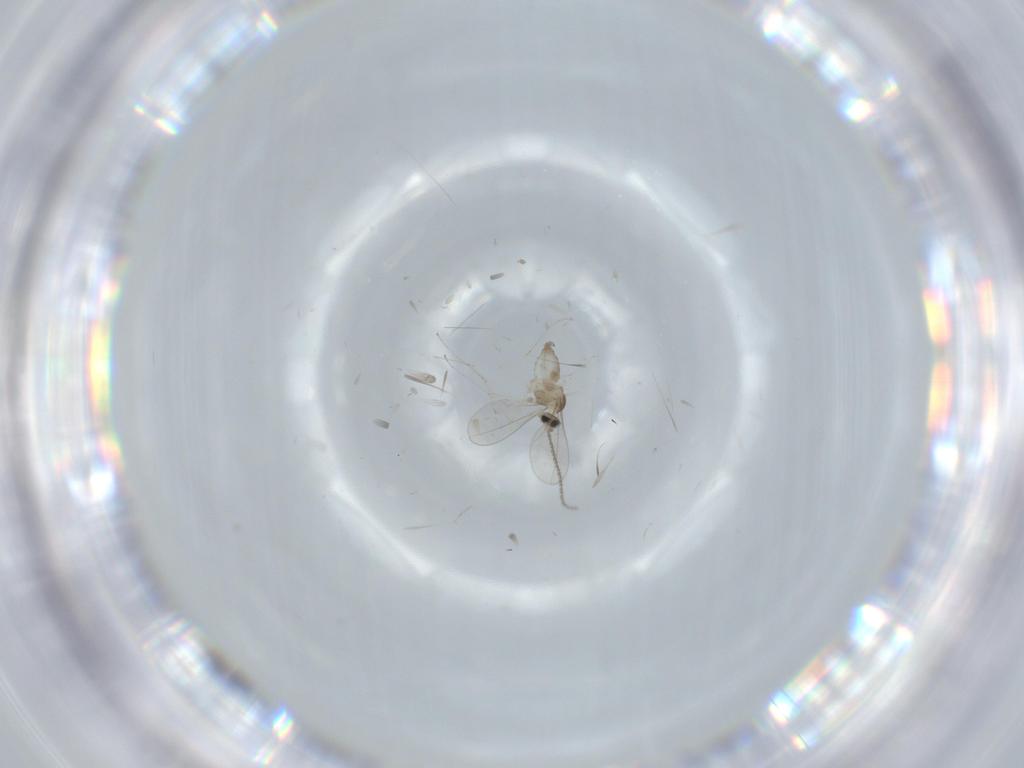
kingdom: Animalia
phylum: Arthropoda
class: Insecta
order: Diptera
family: Cecidomyiidae
